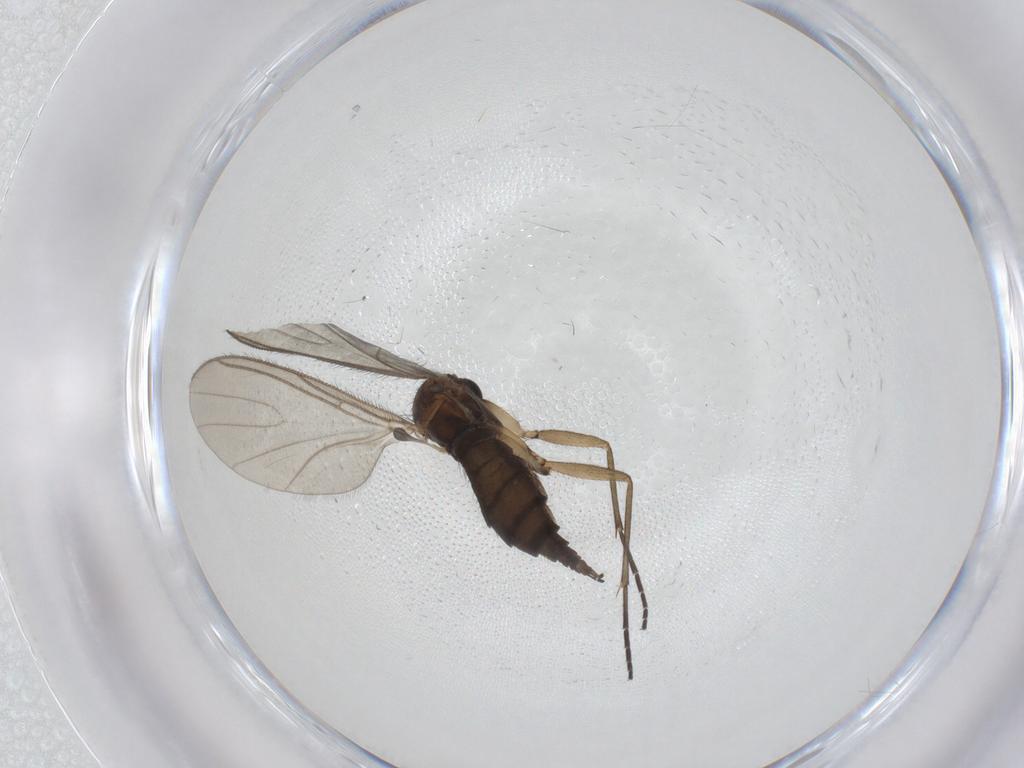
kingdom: Animalia
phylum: Arthropoda
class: Insecta
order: Diptera
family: Sciaridae
